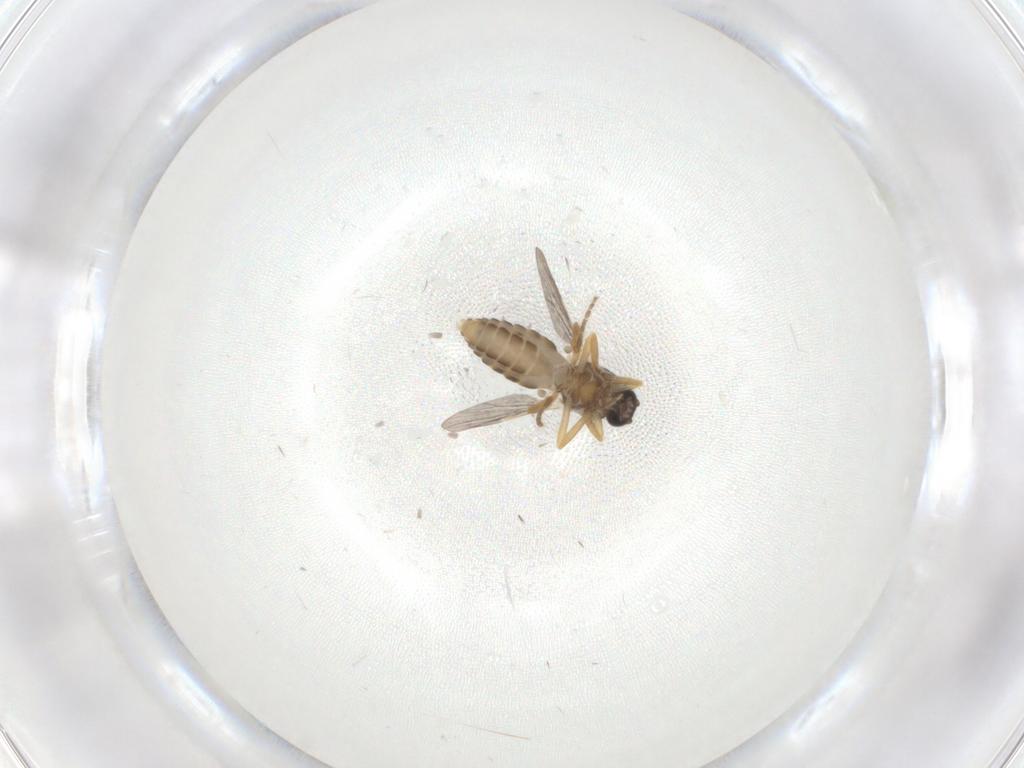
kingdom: Animalia
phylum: Arthropoda
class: Insecta
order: Diptera
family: Ceratopogonidae
